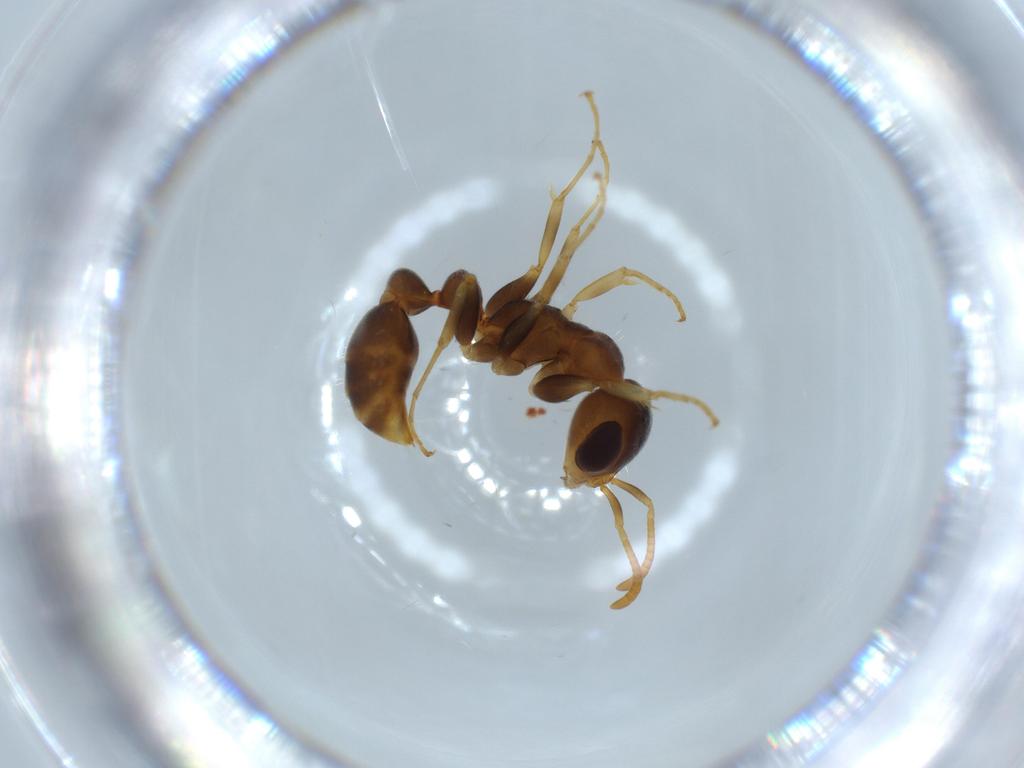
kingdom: Animalia
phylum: Arthropoda
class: Insecta
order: Hymenoptera
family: Formicidae
